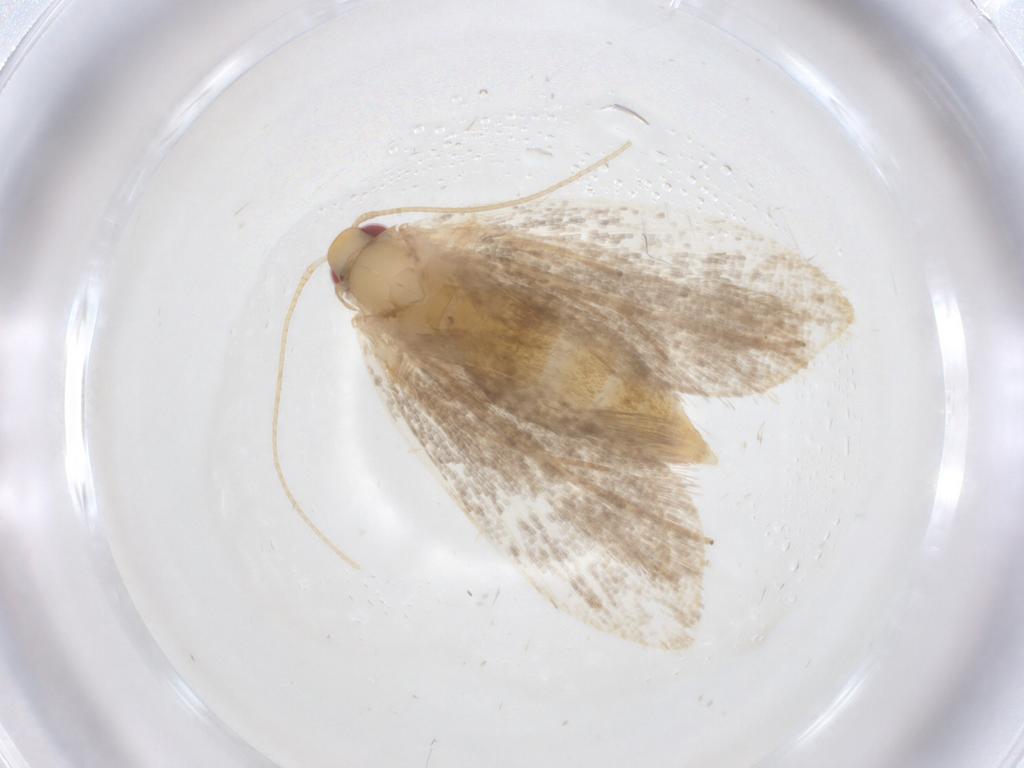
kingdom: Animalia
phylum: Arthropoda
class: Insecta
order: Lepidoptera
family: Oecophoridae
